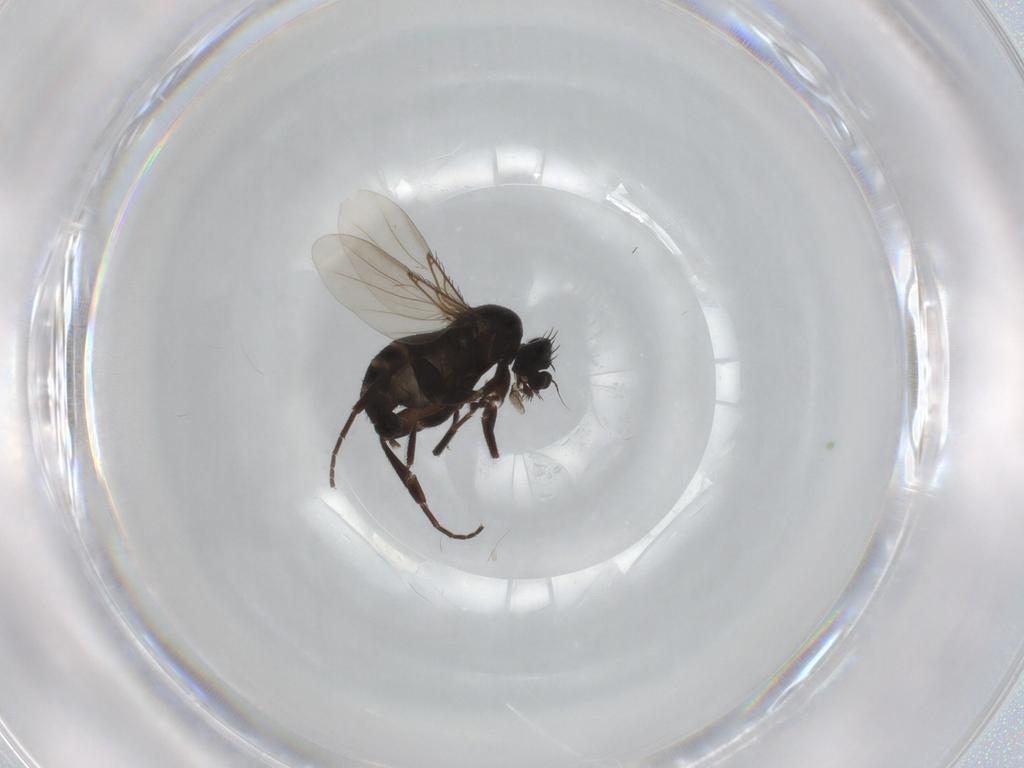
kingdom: Animalia
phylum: Arthropoda
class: Insecta
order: Diptera
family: Phoridae
